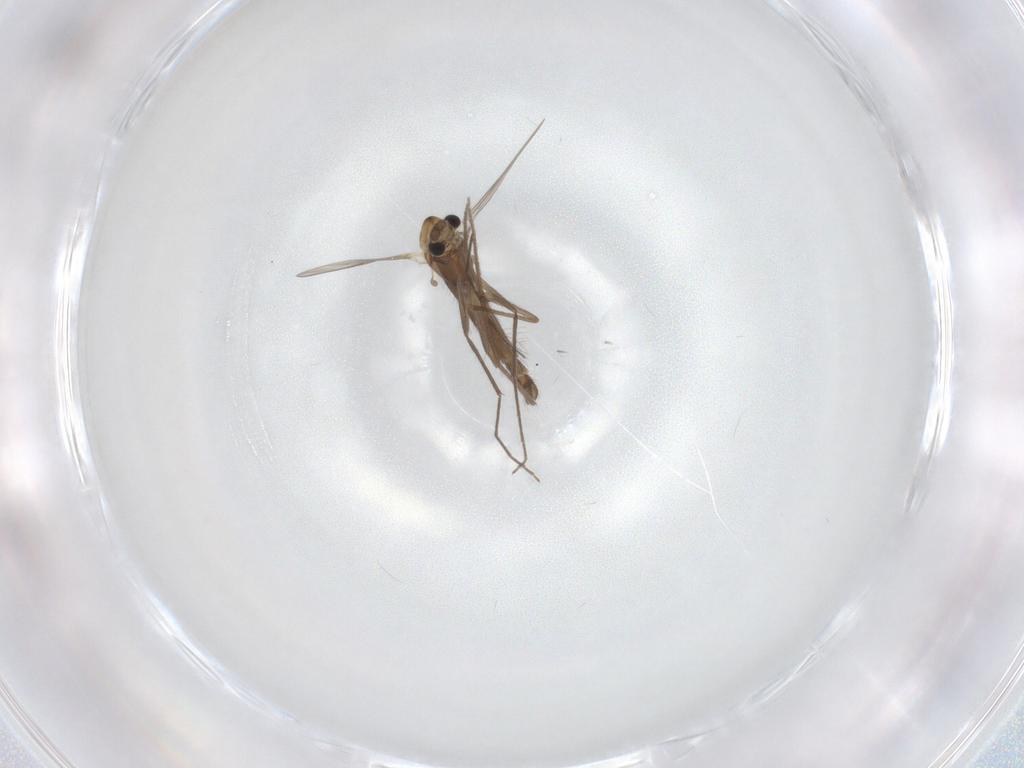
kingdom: Animalia
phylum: Arthropoda
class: Insecta
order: Diptera
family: Chironomidae
